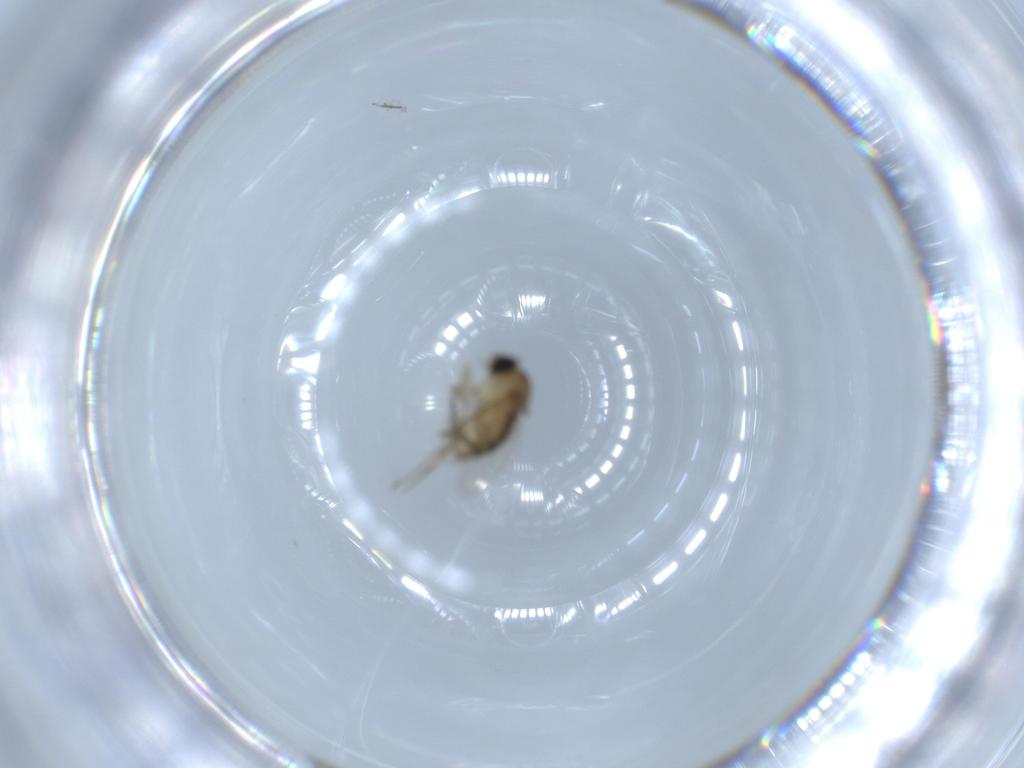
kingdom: Animalia
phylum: Arthropoda
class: Insecta
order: Diptera
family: Phoridae
